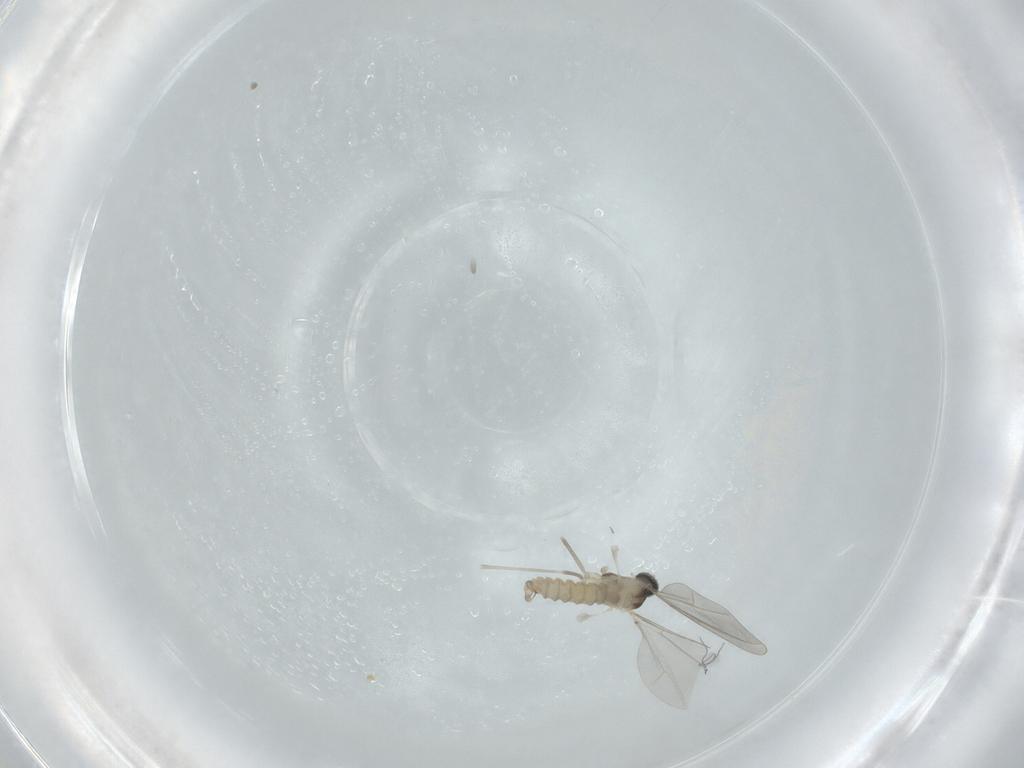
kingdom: Animalia
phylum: Arthropoda
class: Insecta
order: Diptera
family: Cecidomyiidae
